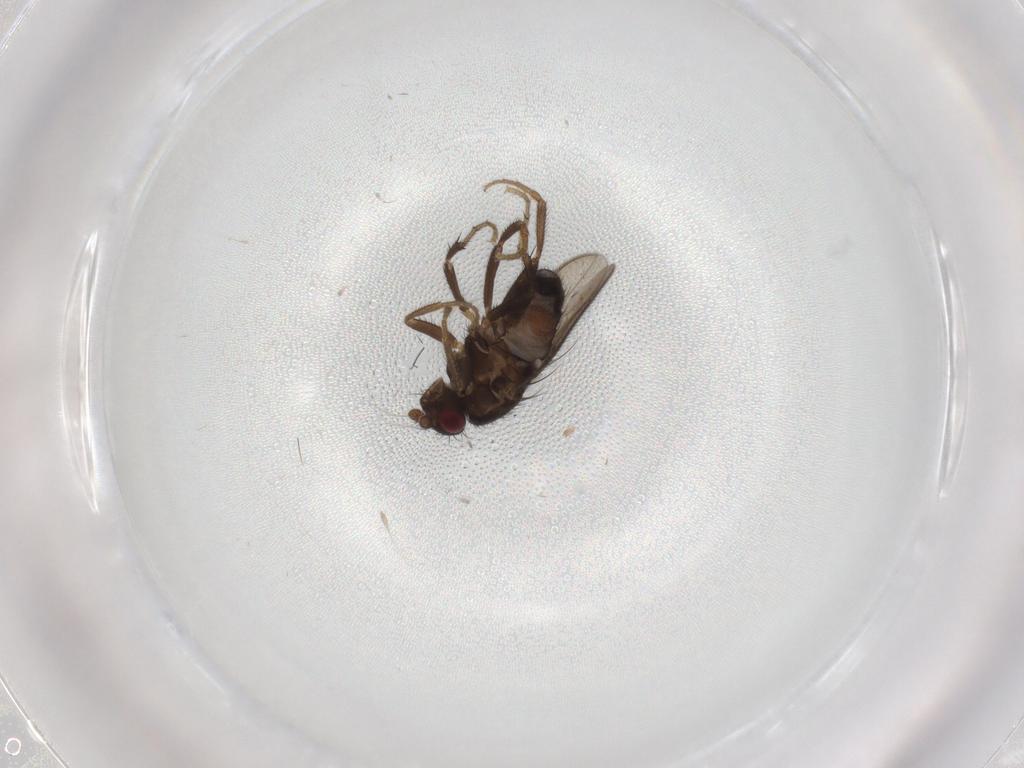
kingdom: Animalia
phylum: Arthropoda
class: Insecta
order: Diptera
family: Sphaeroceridae
